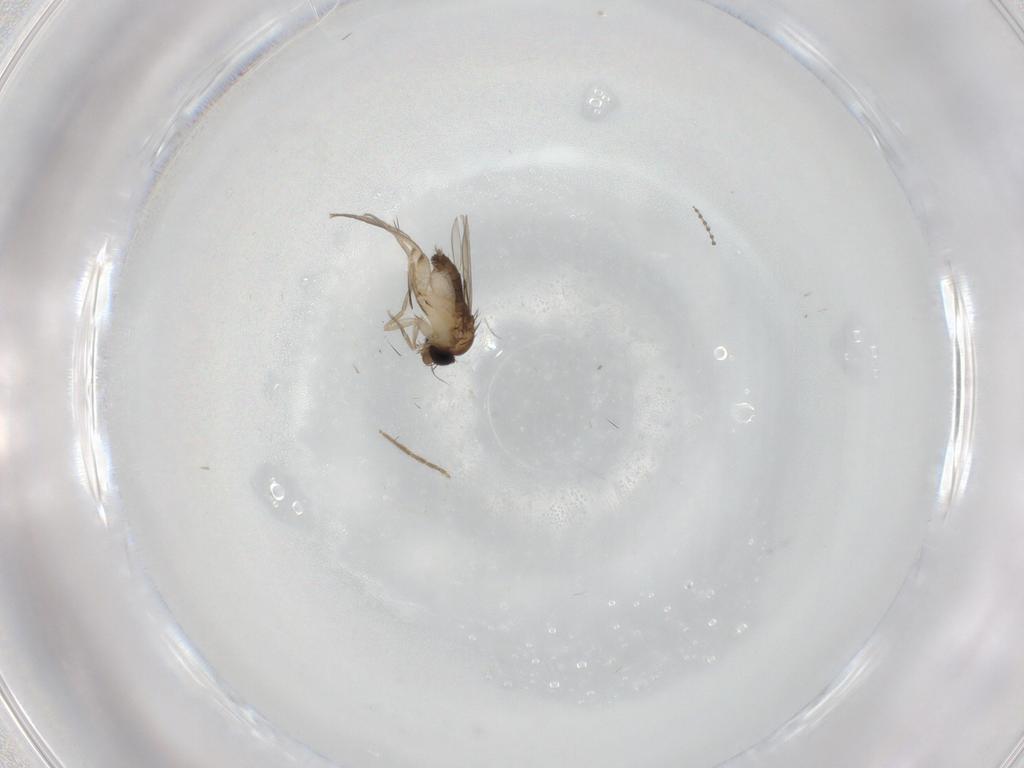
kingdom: Animalia
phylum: Arthropoda
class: Insecta
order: Diptera
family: Phoridae
